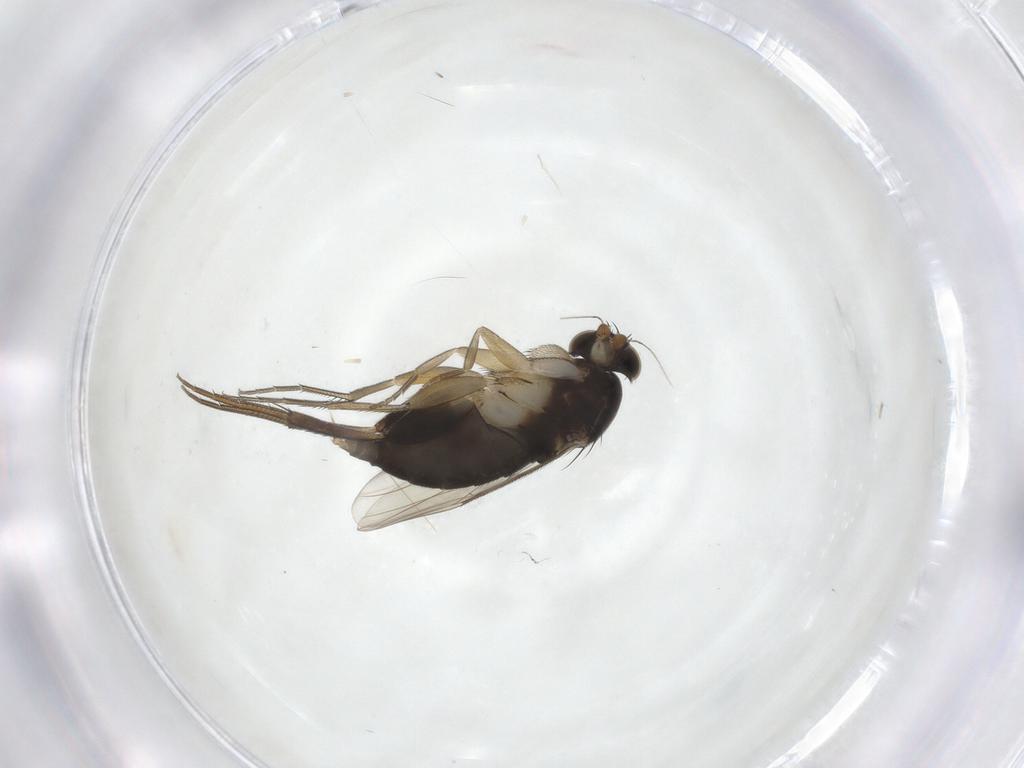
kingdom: Animalia
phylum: Arthropoda
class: Insecta
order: Diptera
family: Phoridae
